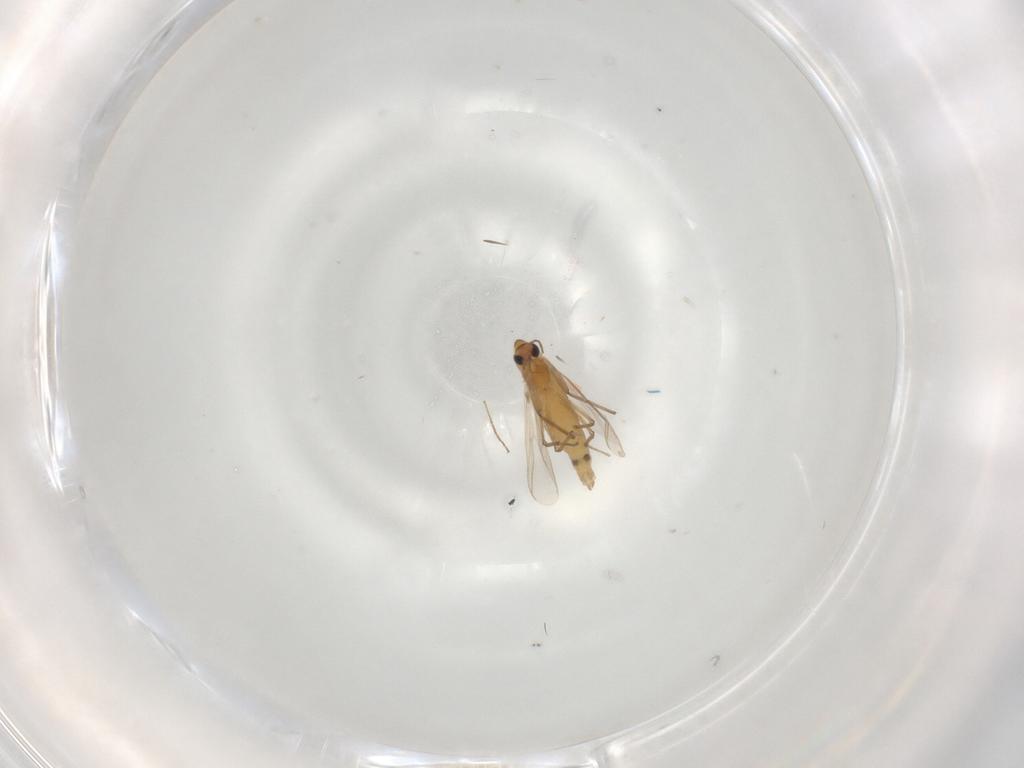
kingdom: Animalia
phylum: Arthropoda
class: Insecta
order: Diptera
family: Chironomidae
